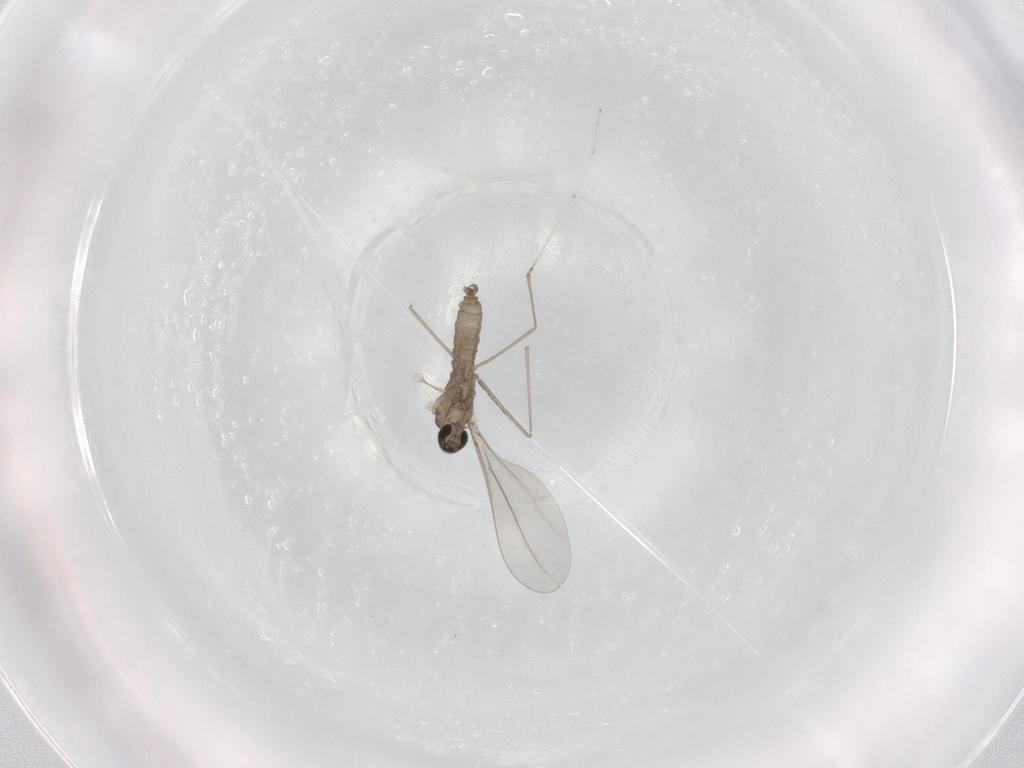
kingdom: Animalia
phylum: Arthropoda
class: Insecta
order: Diptera
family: Cecidomyiidae
